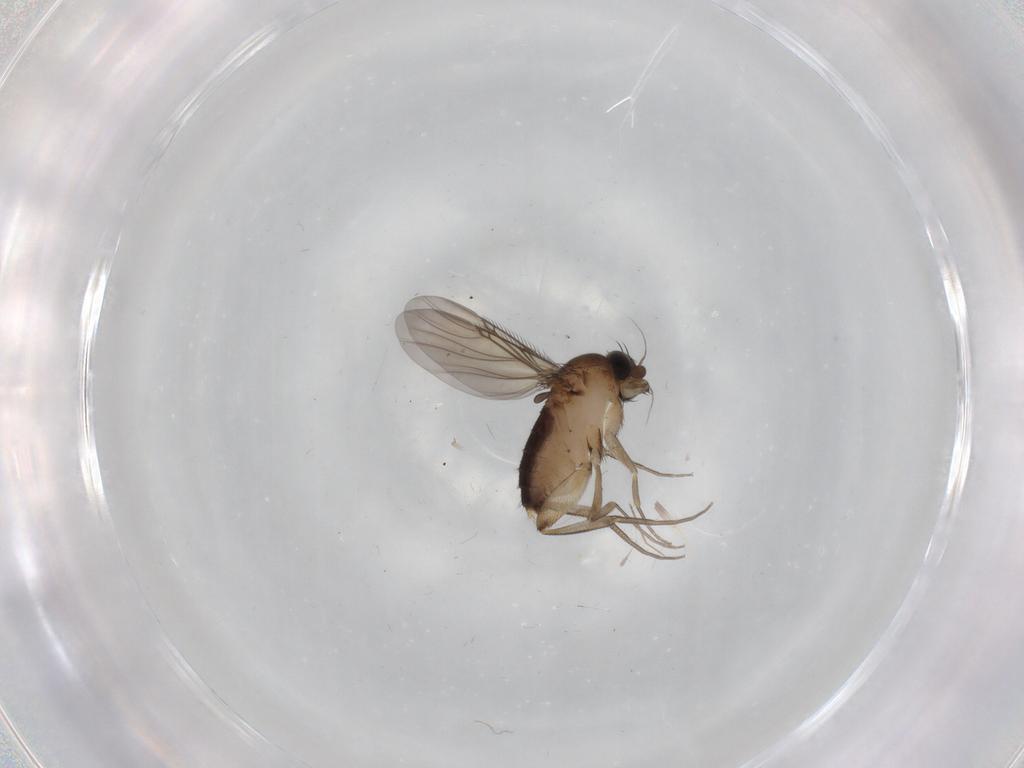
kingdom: Animalia
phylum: Arthropoda
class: Insecta
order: Diptera
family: Phoridae
